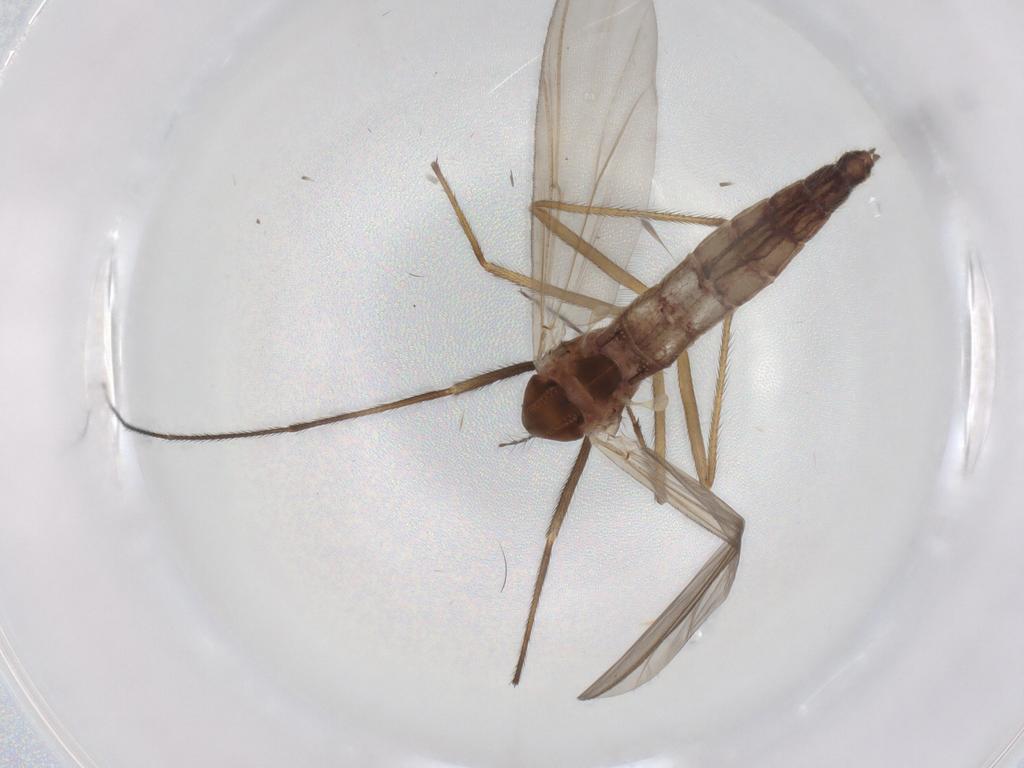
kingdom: Animalia
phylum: Arthropoda
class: Insecta
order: Diptera
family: Chironomidae
